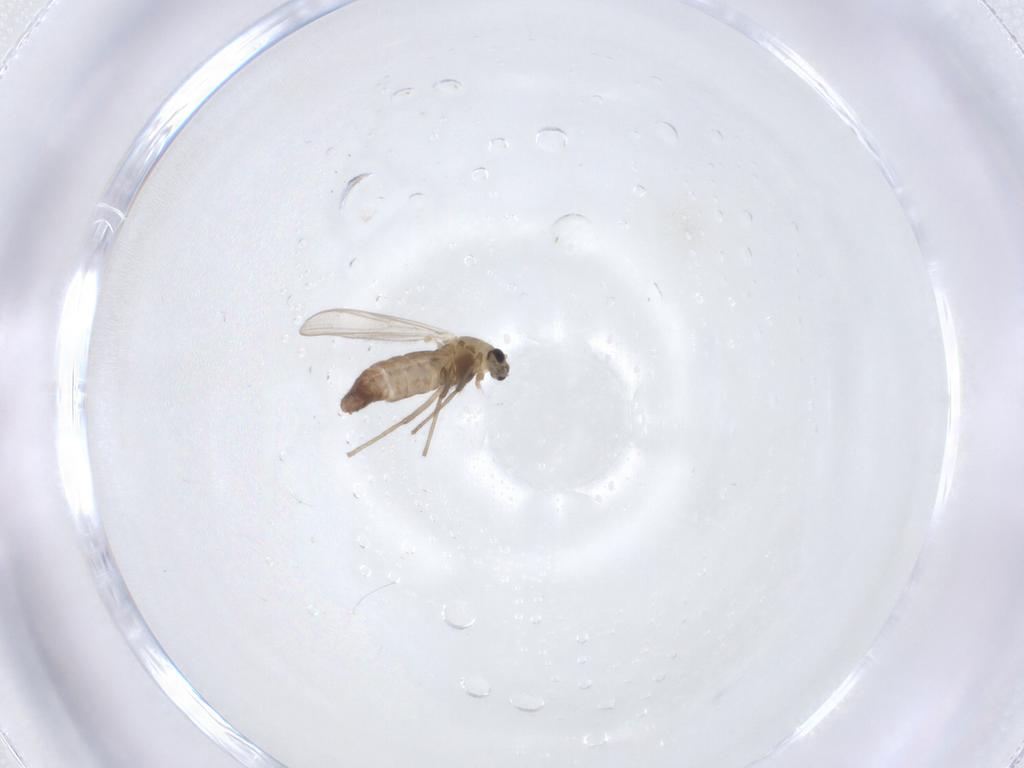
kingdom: Animalia
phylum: Arthropoda
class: Insecta
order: Diptera
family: Chironomidae
